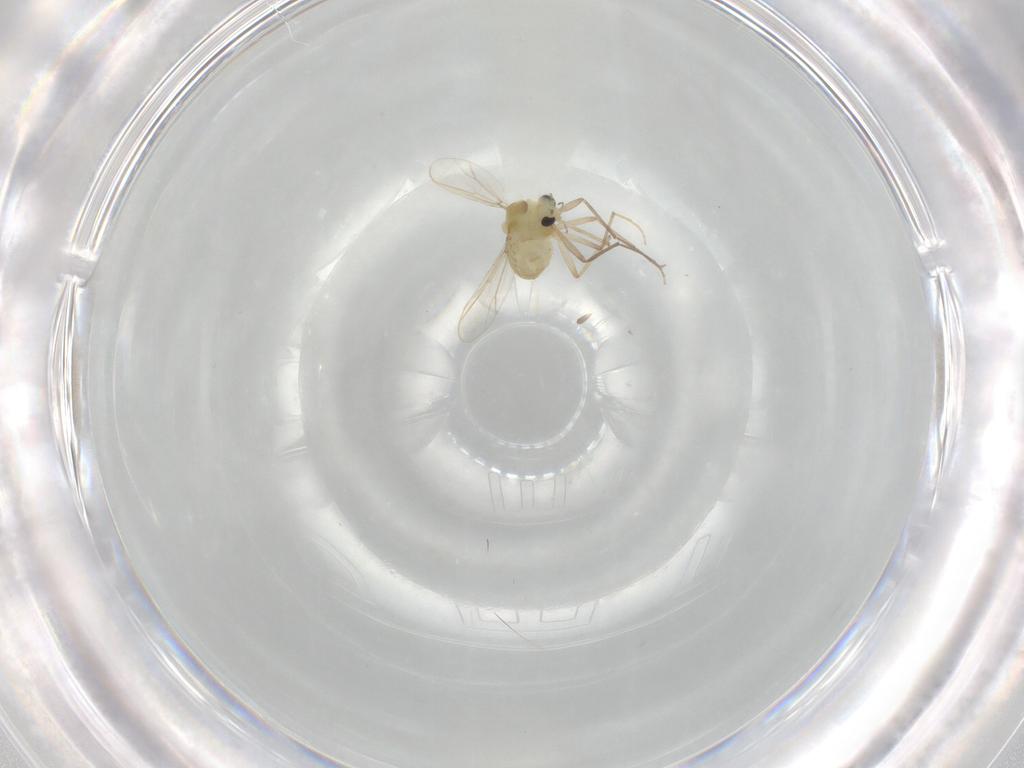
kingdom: Animalia
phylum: Arthropoda
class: Insecta
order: Diptera
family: Chironomidae
